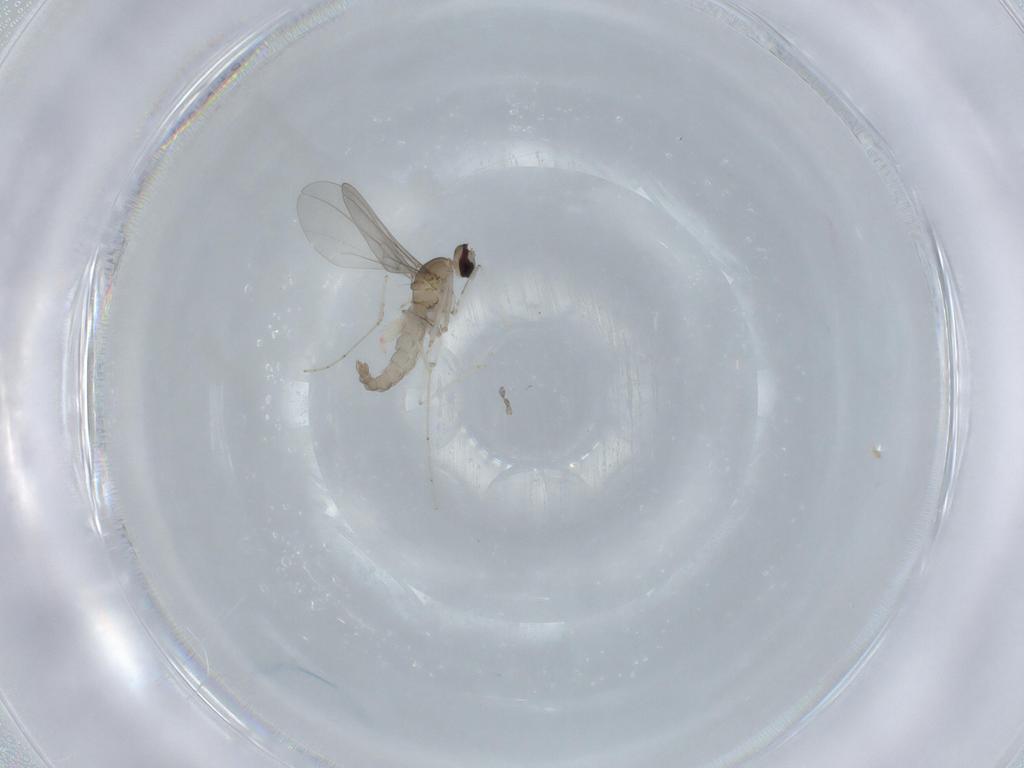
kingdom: Animalia
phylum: Arthropoda
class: Insecta
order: Diptera
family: Cecidomyiidae
